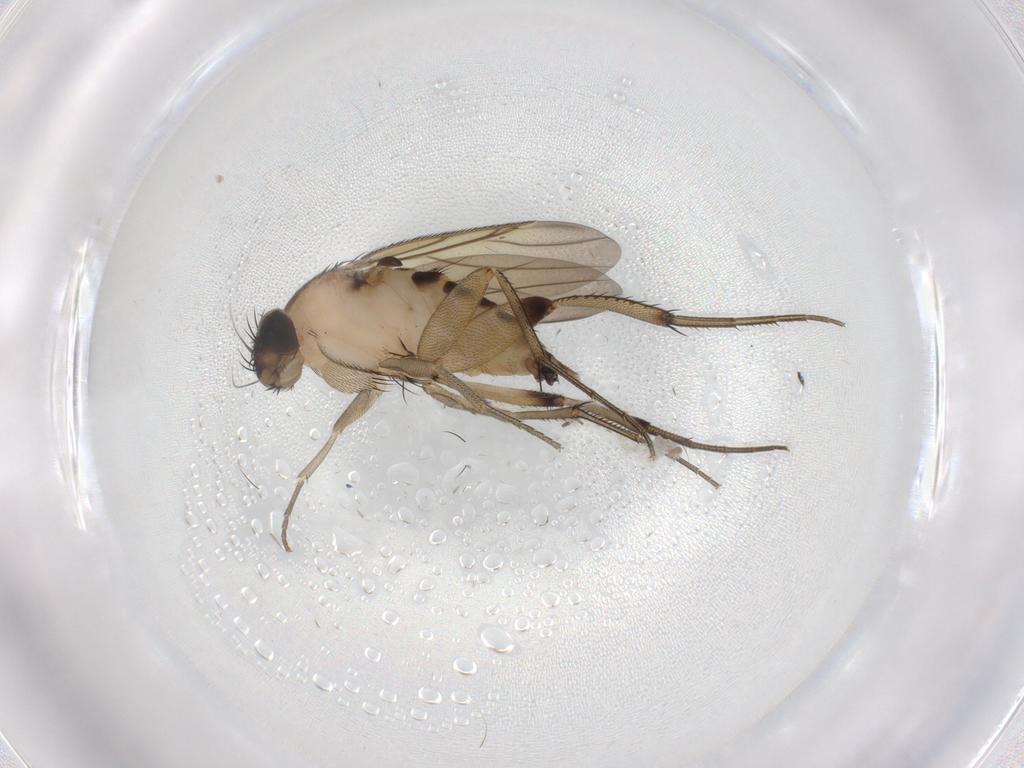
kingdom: Animalia
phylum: Arthropoda
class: Insecta
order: Diptera
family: Phoridae
